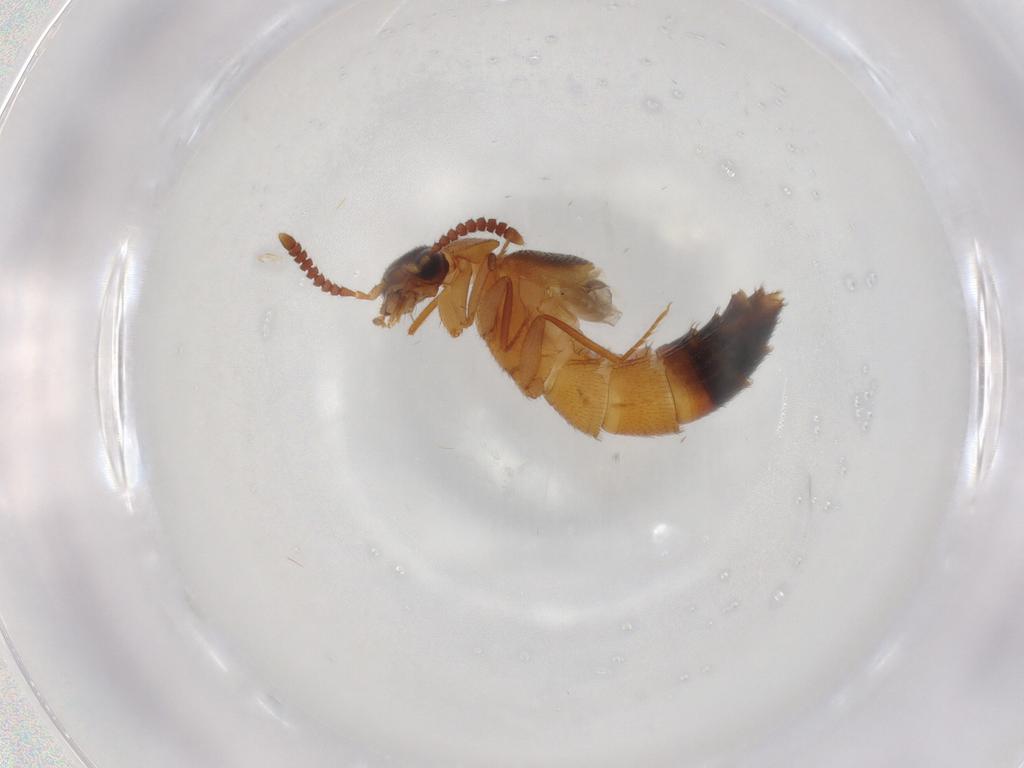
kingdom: Animalia
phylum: Arthropoda
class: Insecta
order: Coleoptera
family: Staphylinidae
